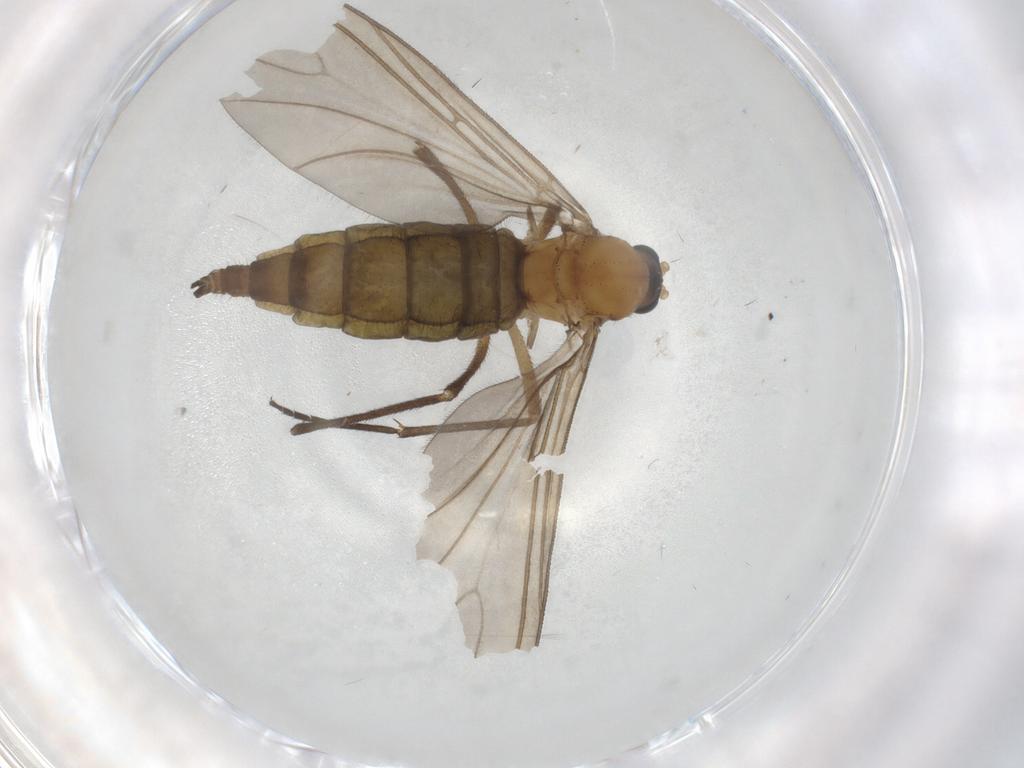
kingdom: Animalia
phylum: Arthropoda
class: Insecta
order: Diptera
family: Sciaridae
